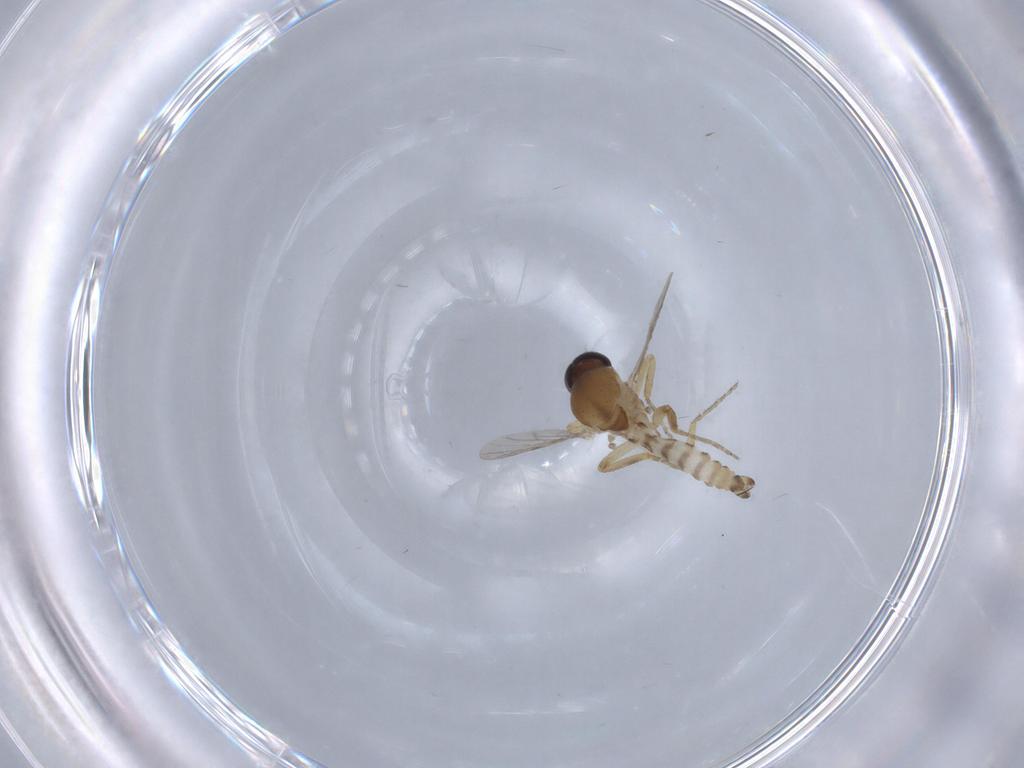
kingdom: Animalia
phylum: Arthropoda
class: Insecta
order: Diptera
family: Ceratopogonidae
